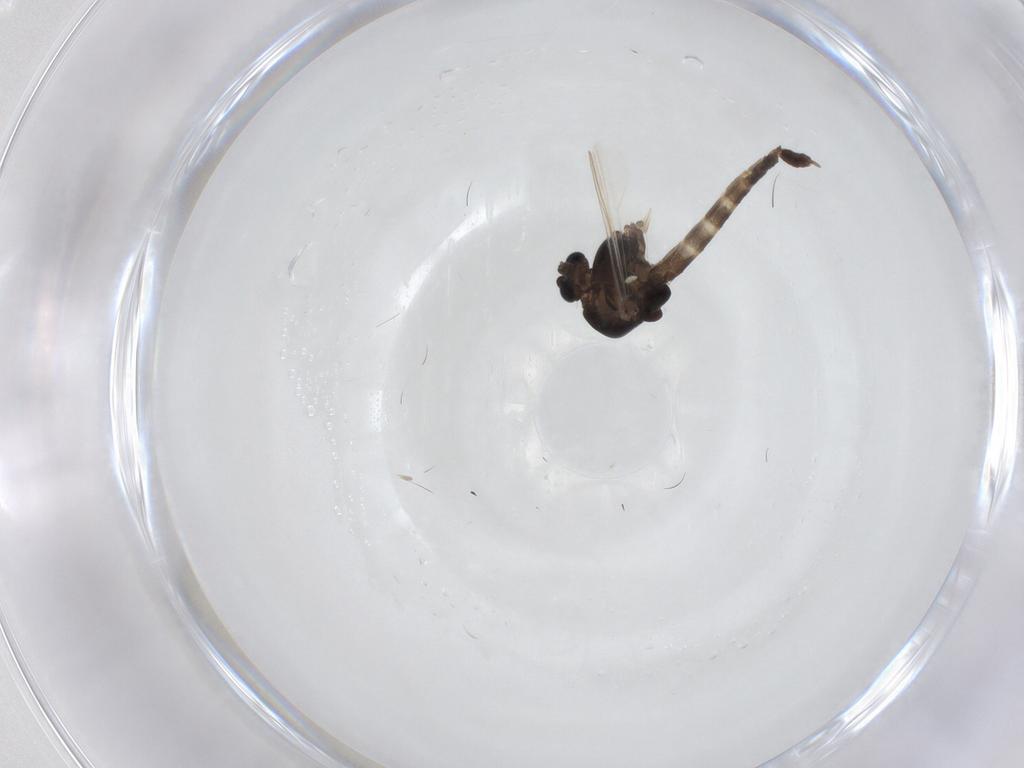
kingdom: Animalia
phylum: Arthropoda
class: Insecta
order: Diptera
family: Chironomidae
